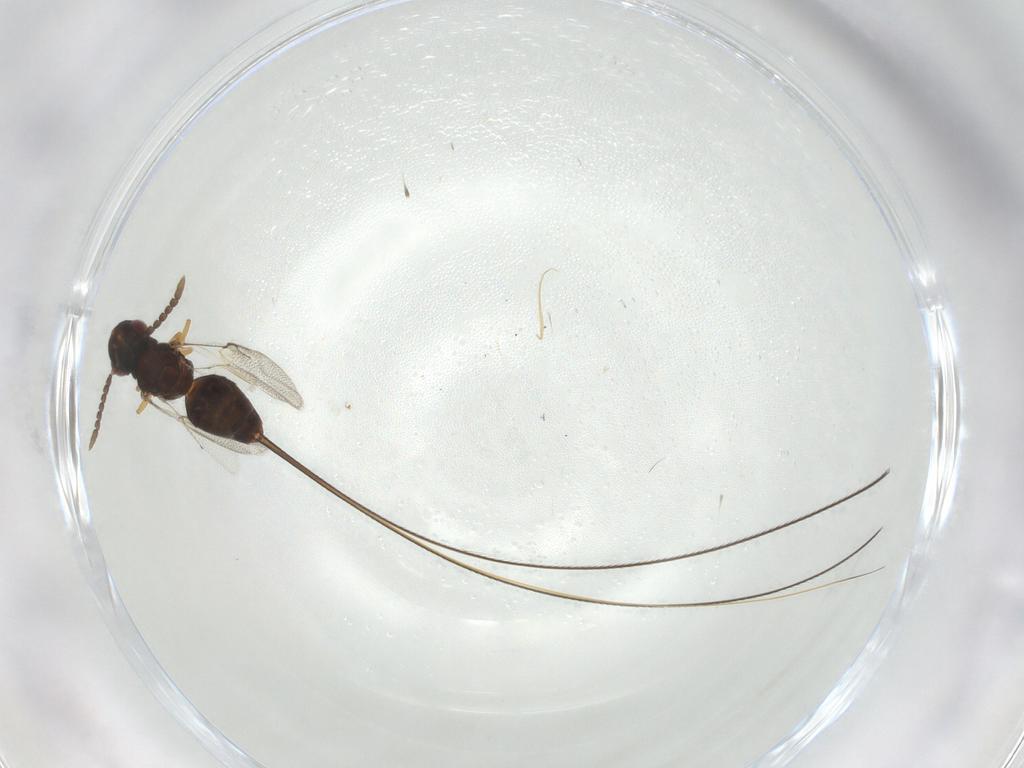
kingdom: Animalia
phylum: Arthropoda
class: Insecta
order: Hymenoptera
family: Pteromalidae
